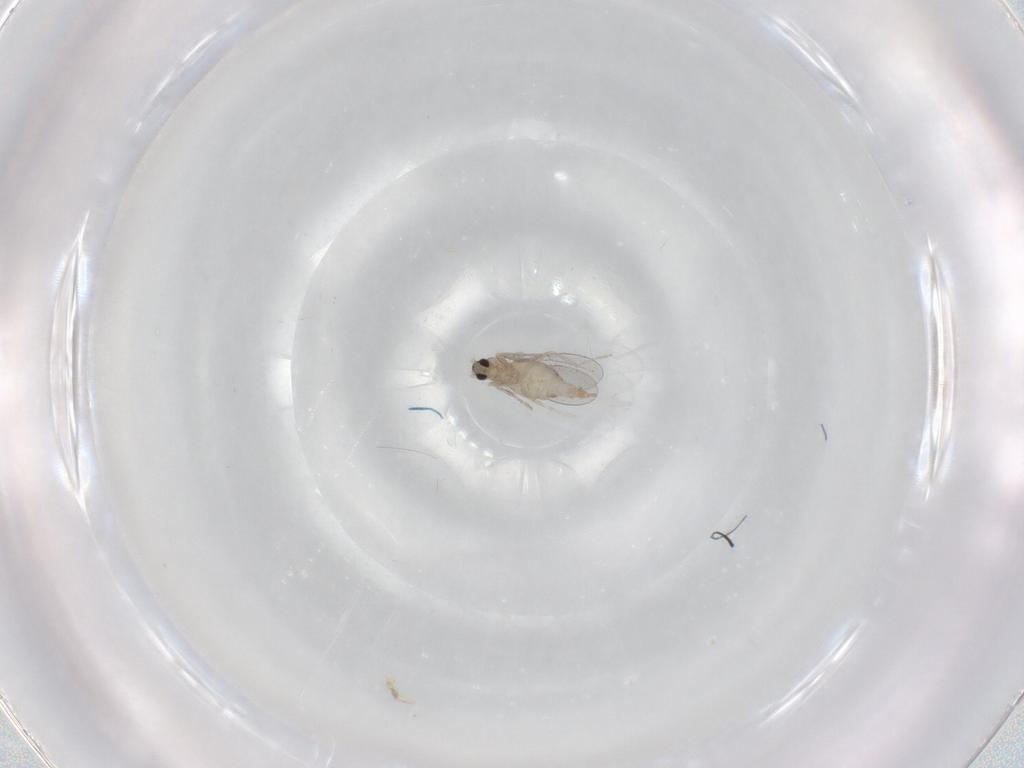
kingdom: Animalia
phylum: Arthropoda
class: Insecta
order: Diptera
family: Cecidomyiidae
